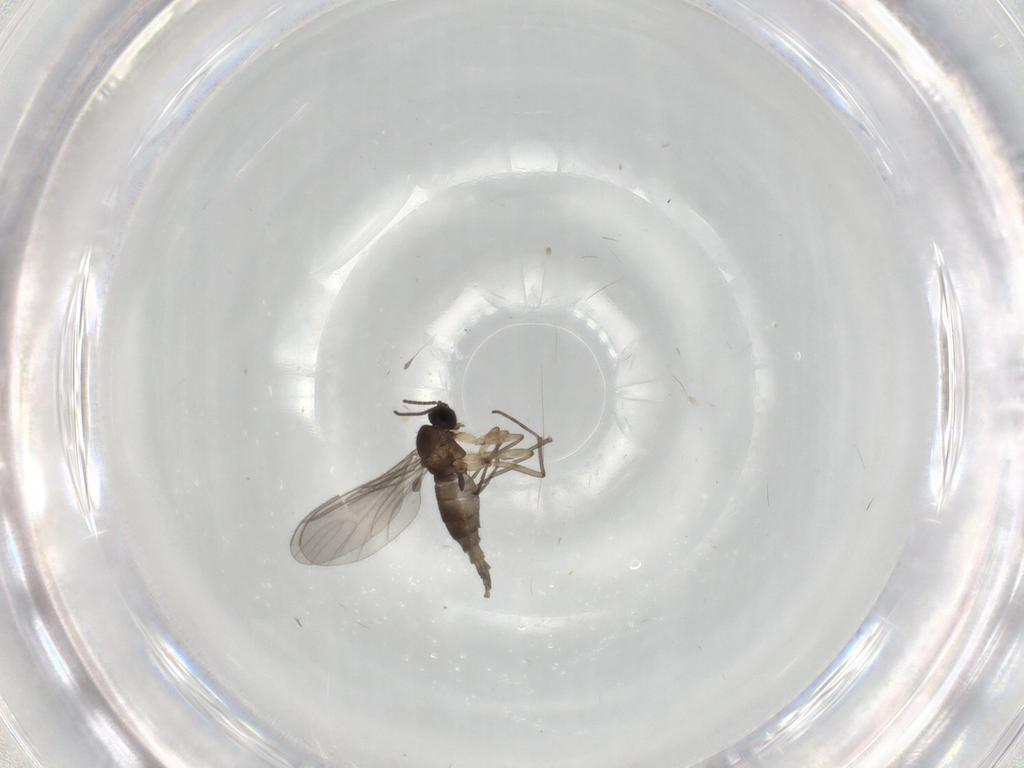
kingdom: Animalia
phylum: Arthropoda
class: Insecta
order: Diptera
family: Sciaridae
